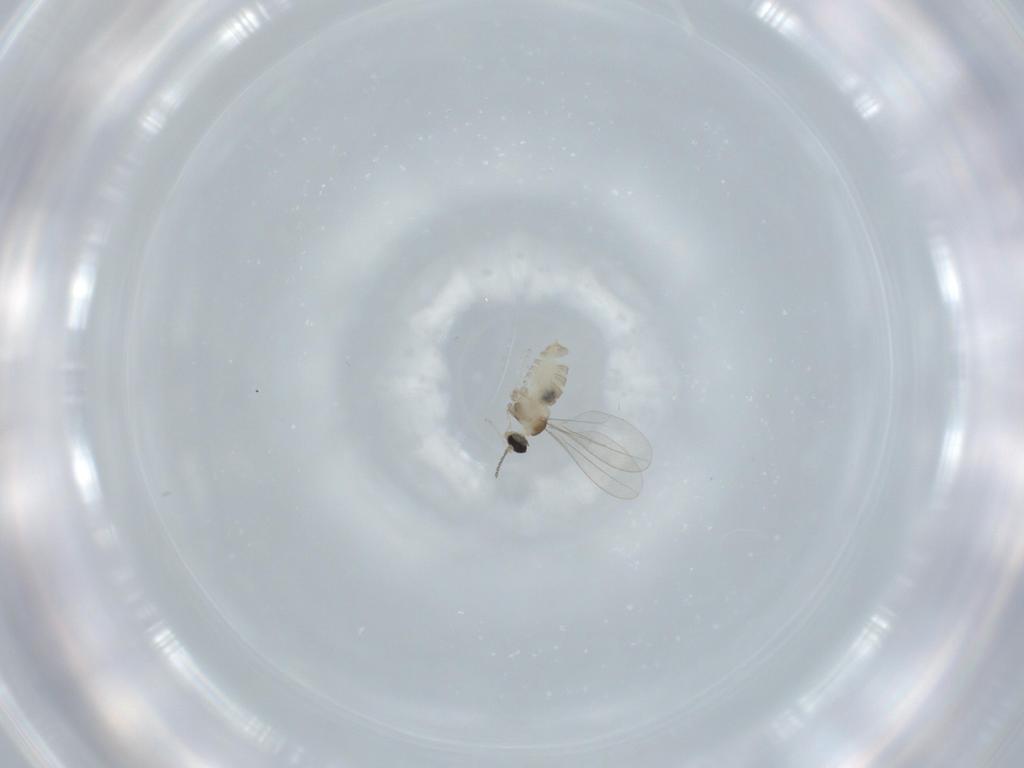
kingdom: Animalia
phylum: Arthropoda
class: Insecta
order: Diptera
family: Cecidomyiidae
